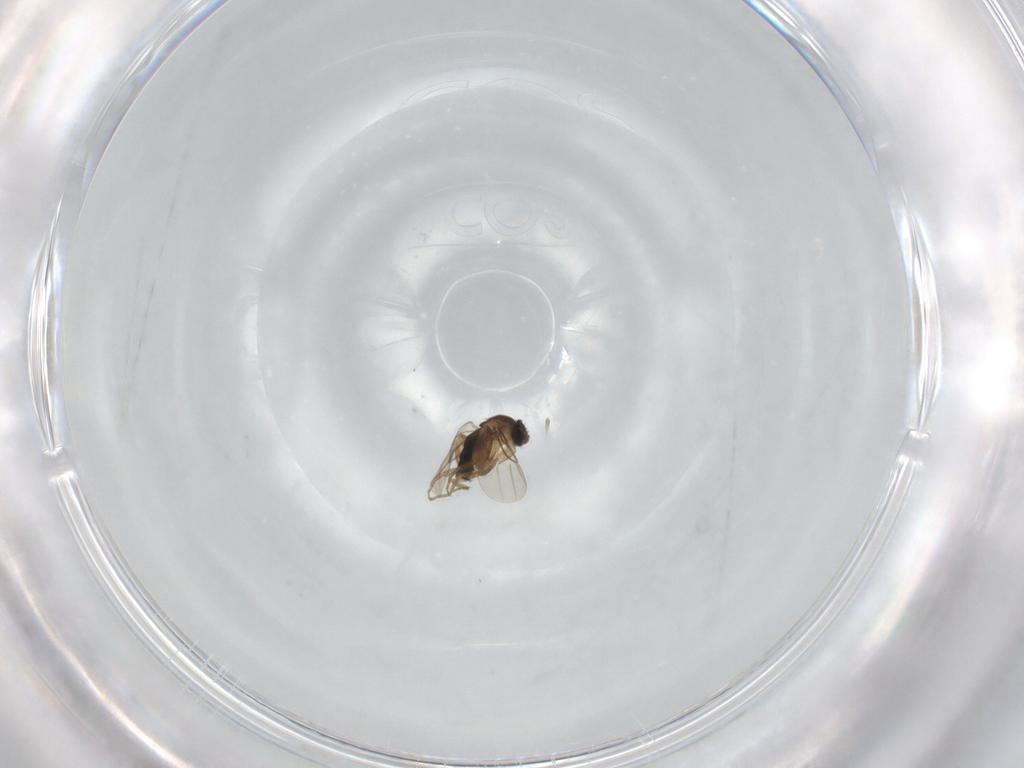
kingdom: Animalia
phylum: Arthropoda
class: Insecta
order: Diptera
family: Phoridae
